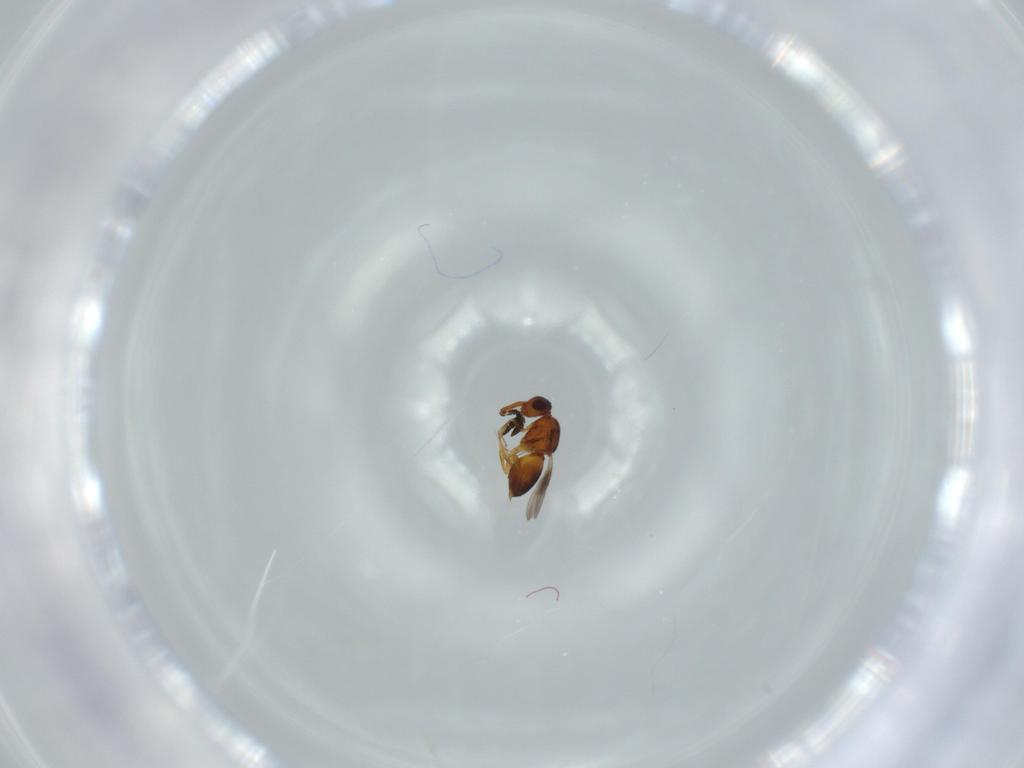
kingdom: Animalia
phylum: Arthropoda
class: Insecta
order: Hymenoptera
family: Ceraphronidae
